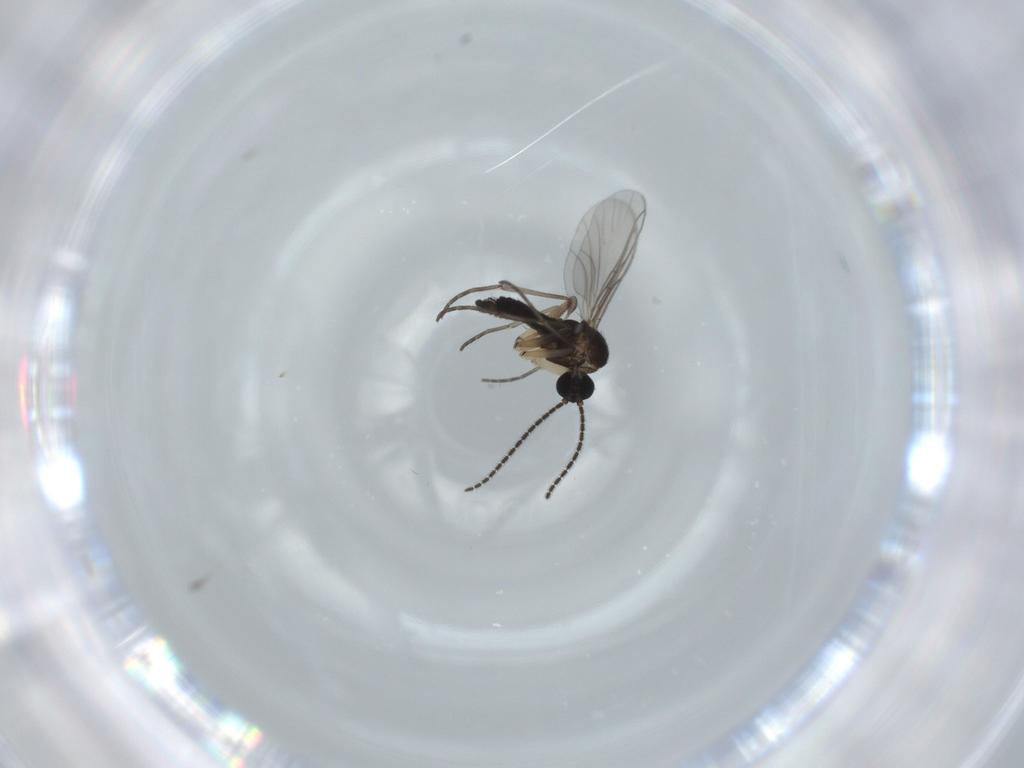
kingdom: Animalia
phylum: Arthropoda
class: Insecta
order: Diptera
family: Sciaridae
